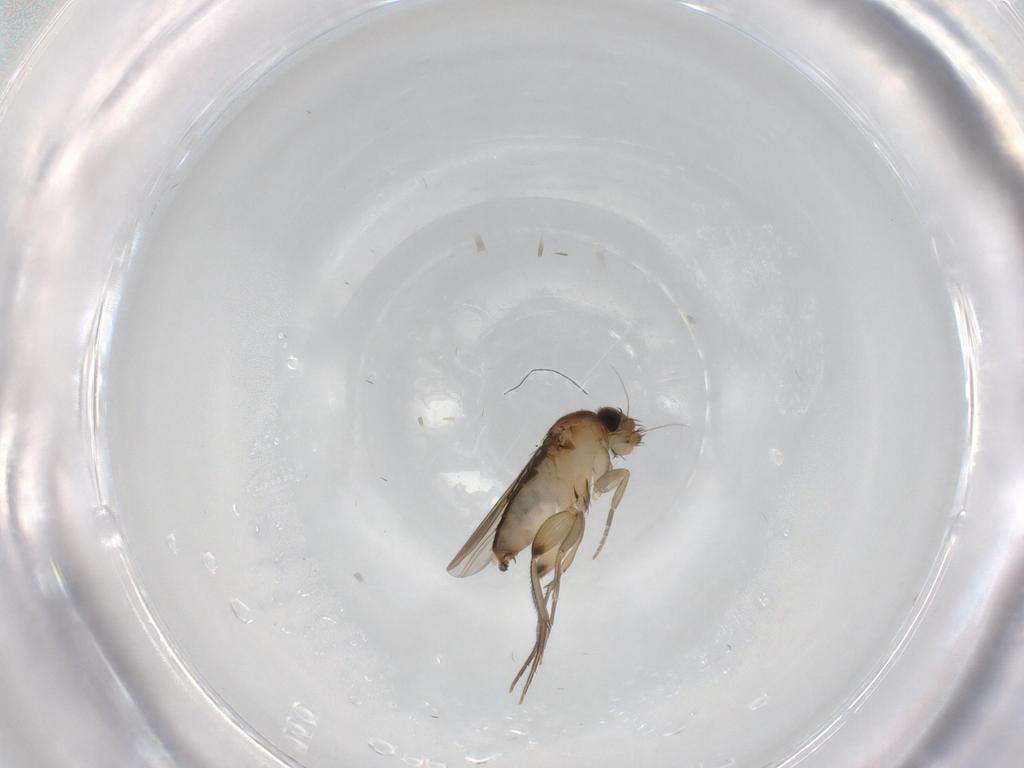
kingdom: Animalia
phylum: Arthropoda
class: Insecta
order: Diptera
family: Phoridae
